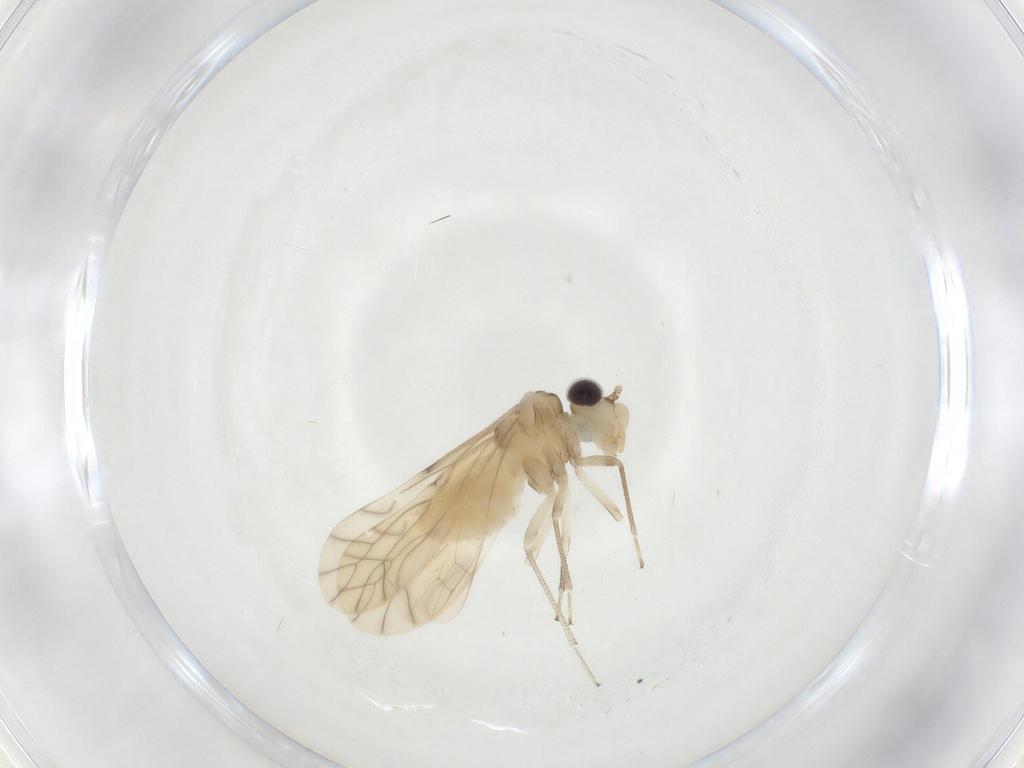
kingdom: Animalia
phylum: Arthropoda
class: Insecta
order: Psocodea
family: Caeciliusidae
